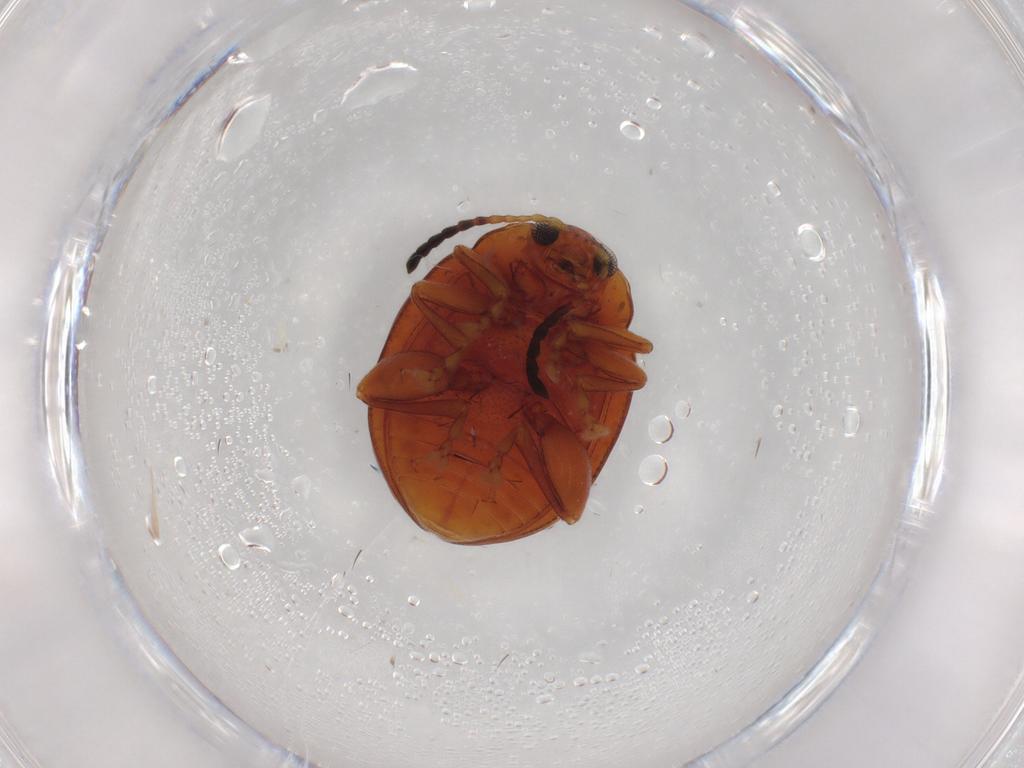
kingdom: Animalia
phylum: Arthropoda
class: Insecta
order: Coleoptera
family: Chrysomelidae
